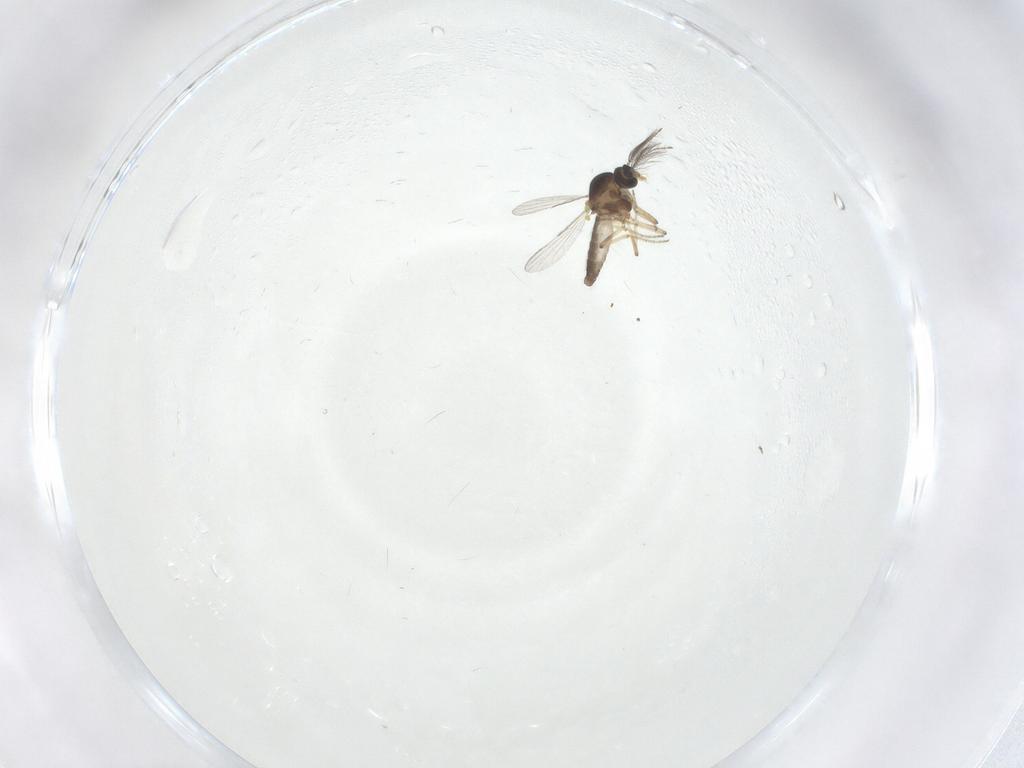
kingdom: Animalia
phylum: Arthropoda
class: Insecta
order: Diptera
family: Ceratopogonidae
